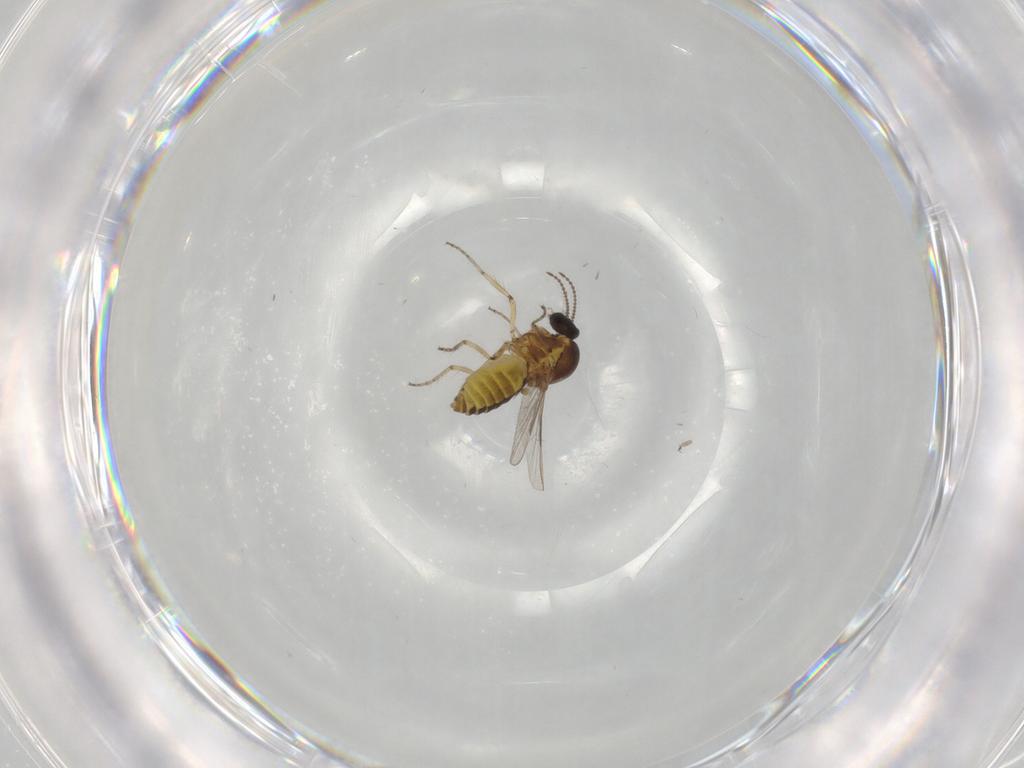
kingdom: Animalia
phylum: Arthropoda
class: Insecta
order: Diptera
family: Ceratopogonidae
